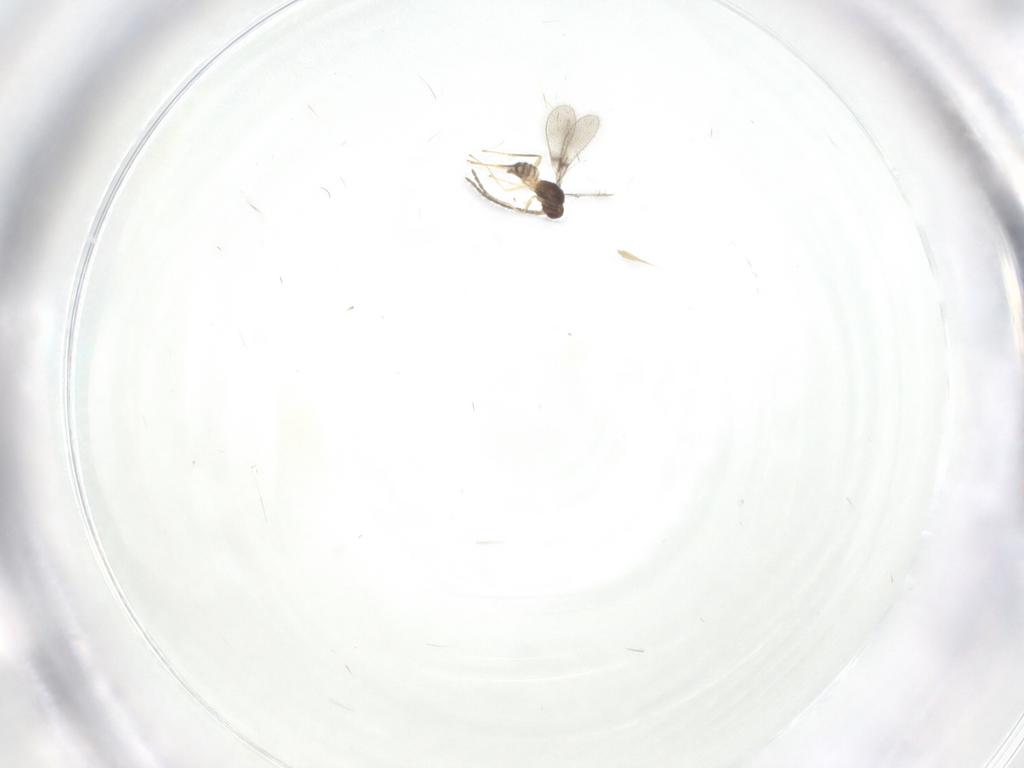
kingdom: Animalia
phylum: Arthropoda
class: Insecta
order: Hymenoptera
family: Mymaridae
